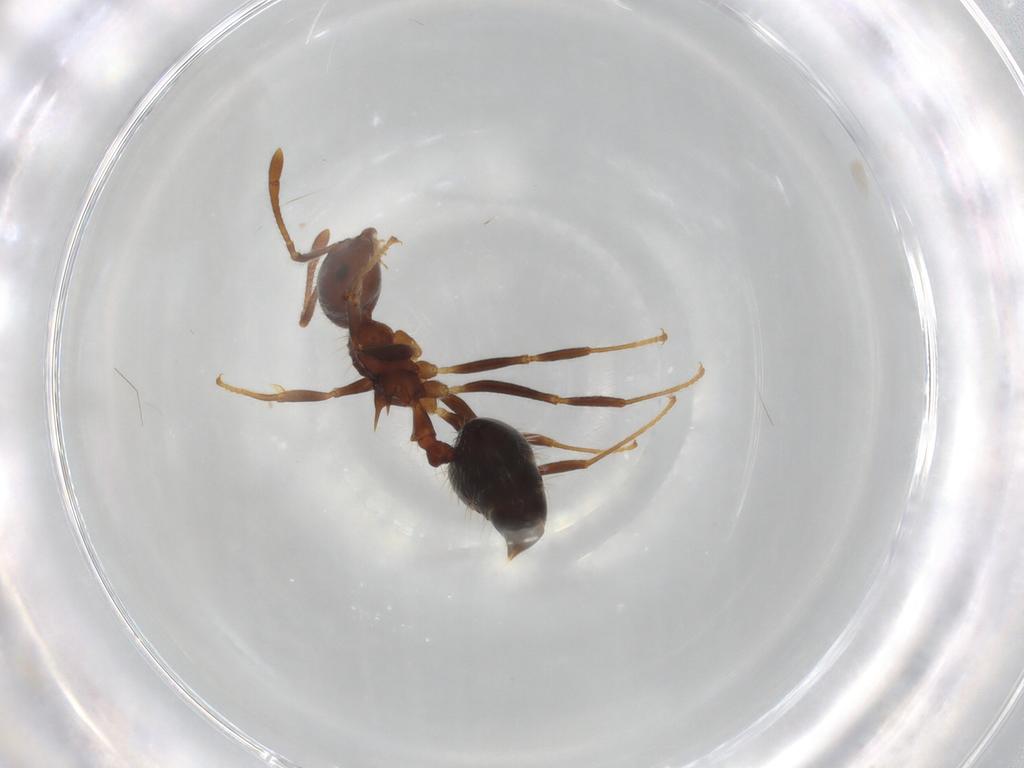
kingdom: Animalia
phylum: Arthropoda
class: Insecta
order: Hymenoptera
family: Formicidae
